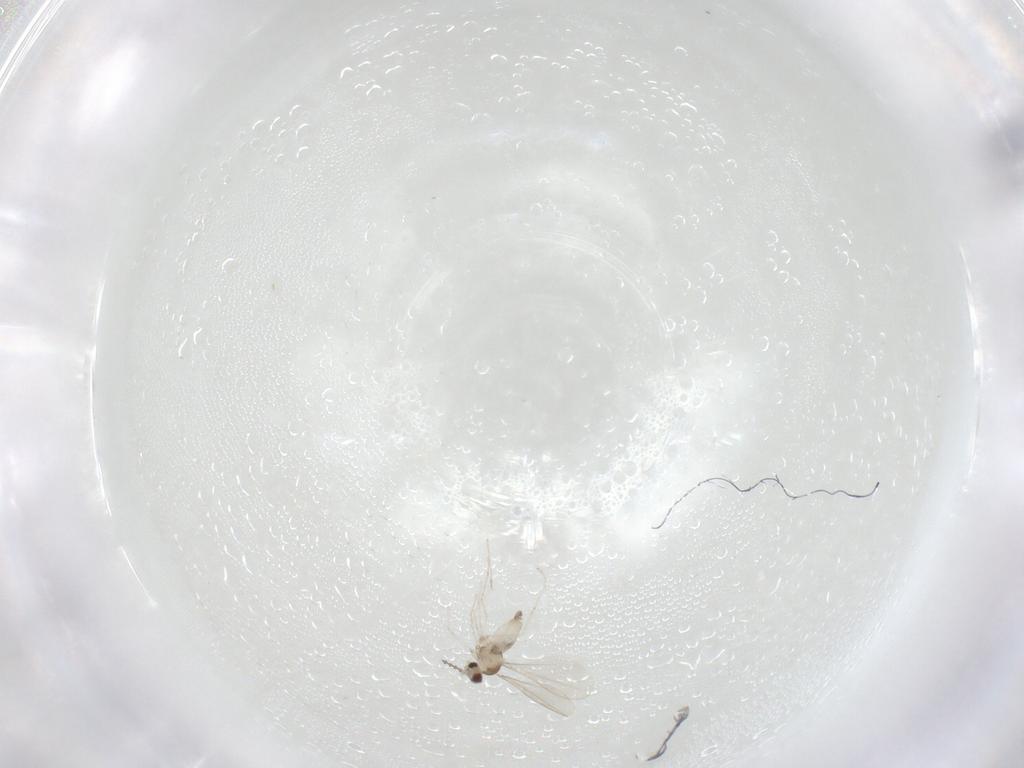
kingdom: Animalia
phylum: Arthropoda
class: Insecta
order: Diptera
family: Cecidomyiidae
